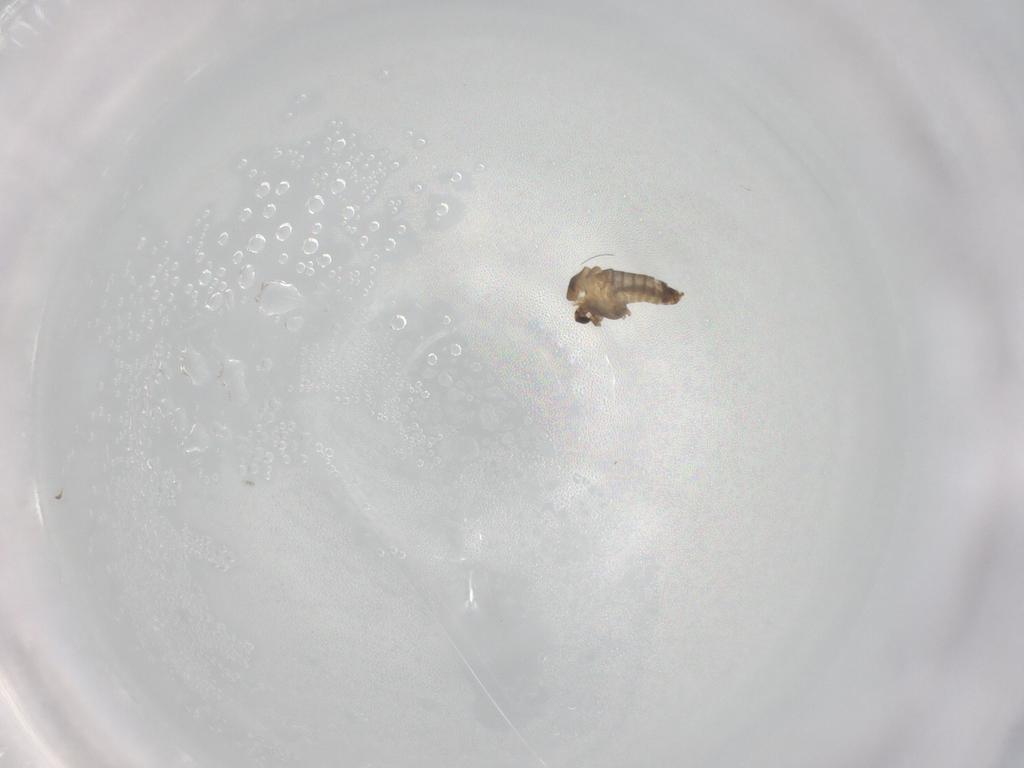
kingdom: Animalia
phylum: Arthropoda
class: Insecta
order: Diptera
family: Chironomidae
